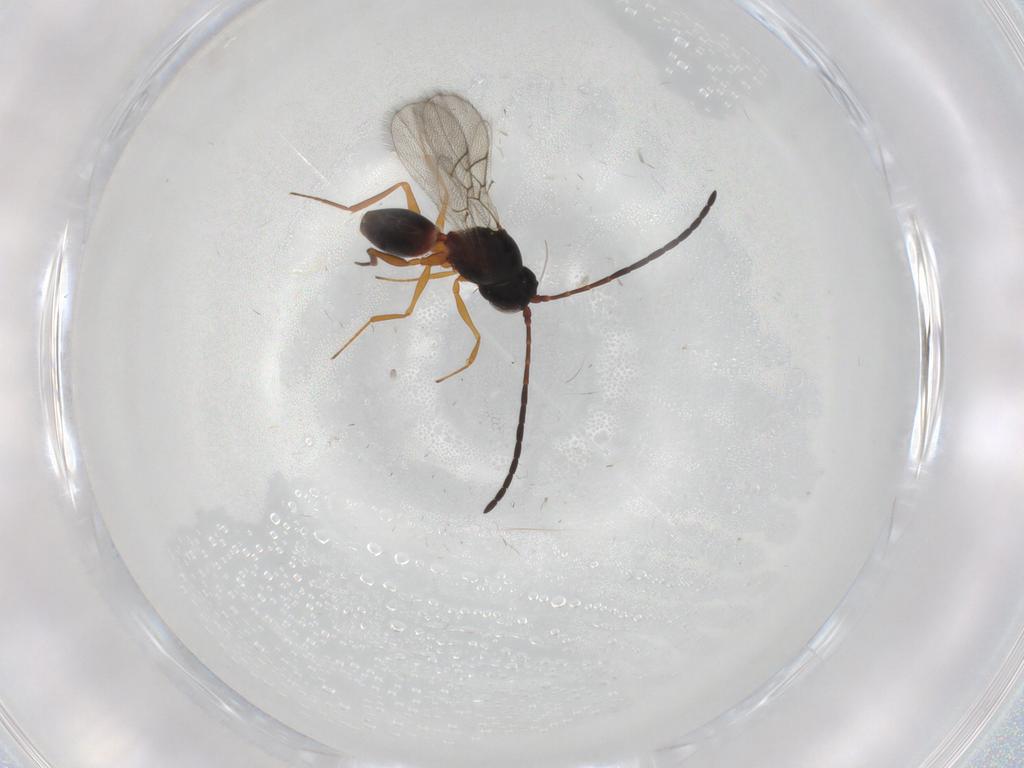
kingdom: Animalia
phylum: Arthropoda
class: Insecta
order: Hymenoptera
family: Figitidae
